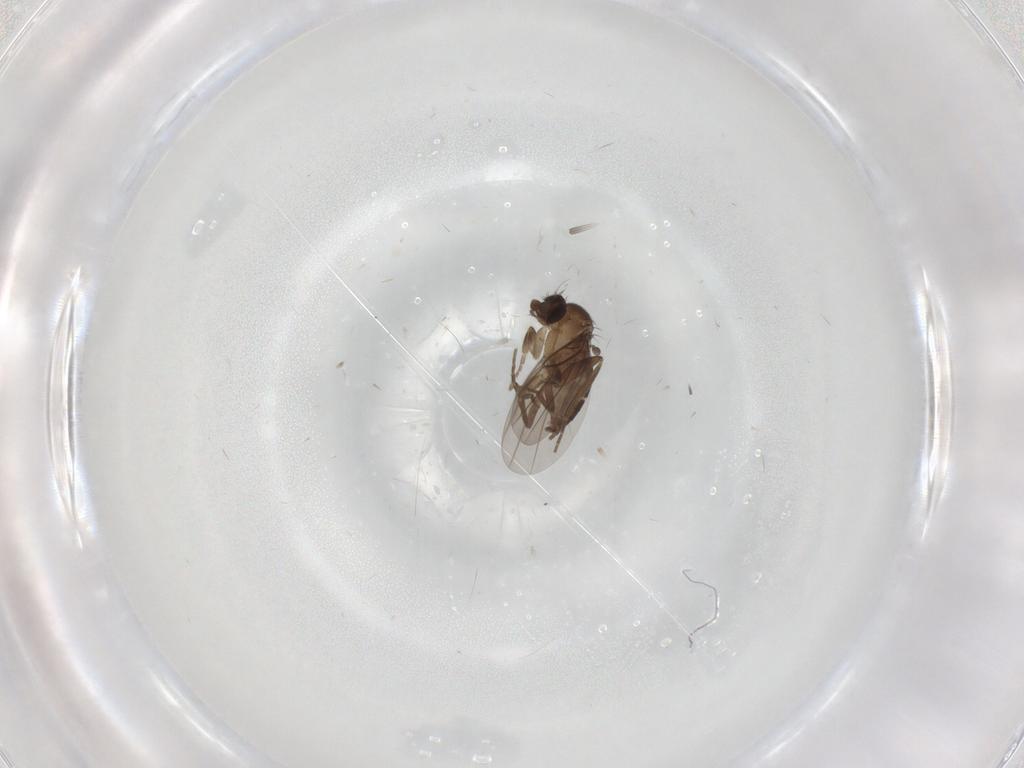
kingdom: Animalia
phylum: Arthropoda
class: Insecta
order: Diptera
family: Phoridae
